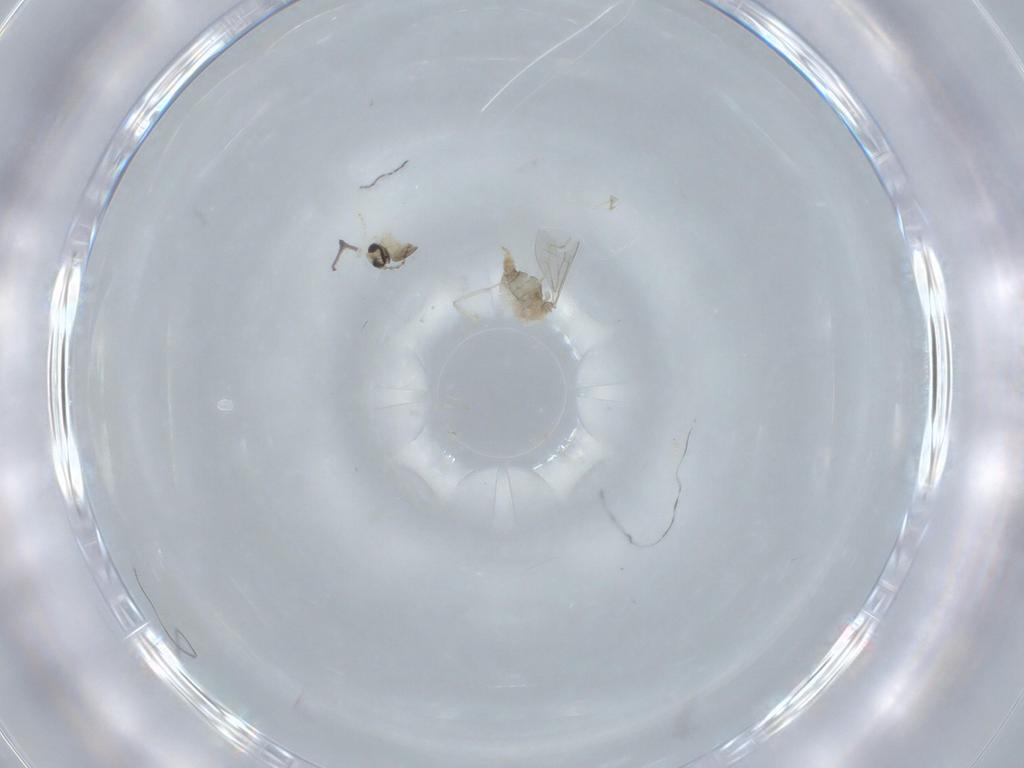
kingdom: Animalia
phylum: Arthropoda
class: Insecta
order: Diptera
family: Cecidomyiidae
